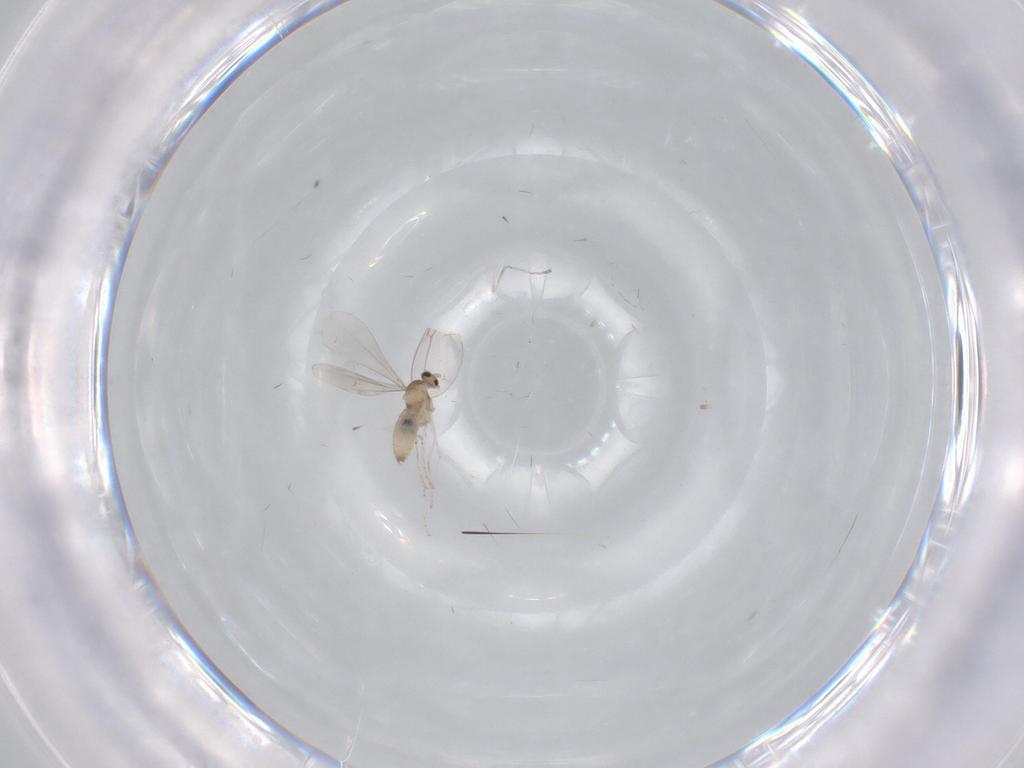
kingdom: Animalia
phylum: Arthropoda
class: Insecta
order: Diptera
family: Cecidomyiidae
